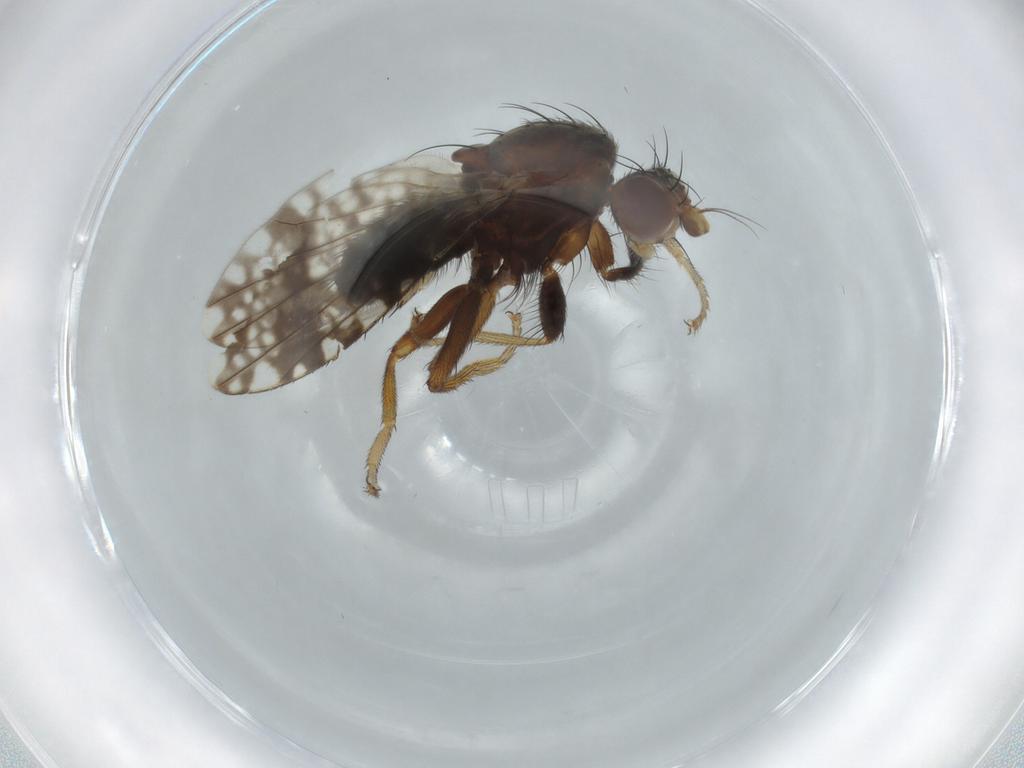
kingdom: Animalia
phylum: Arthropoda
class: Insecta
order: Diptera
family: Tephritidae
